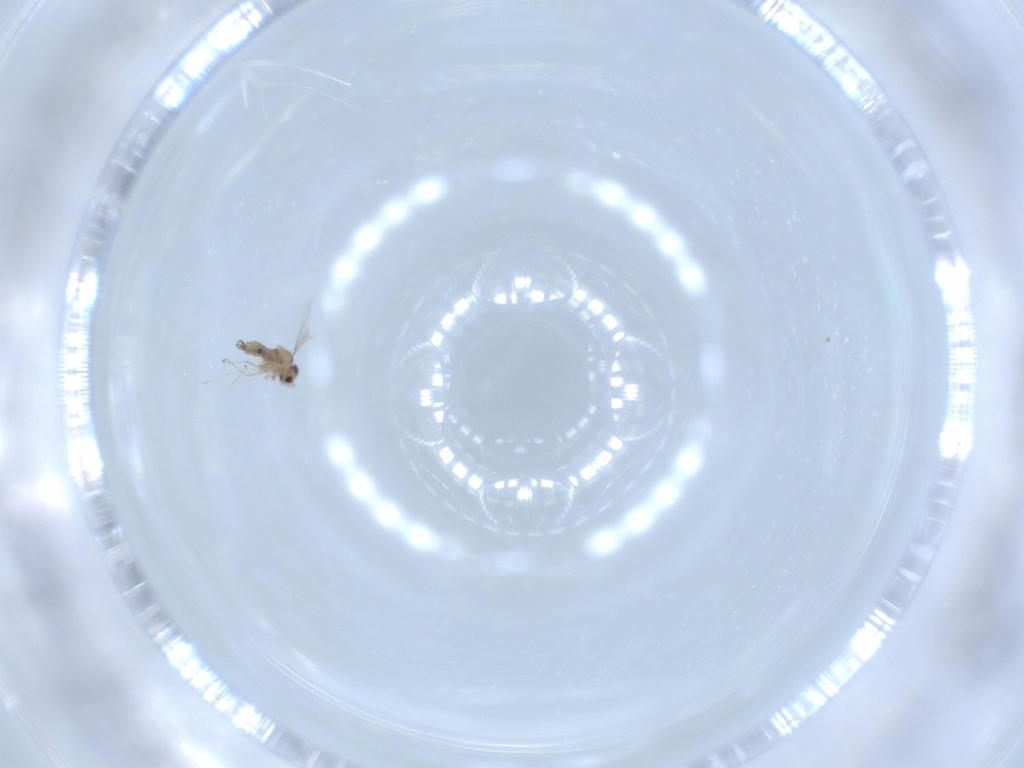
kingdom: Animalia
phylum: Arthropoda
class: Insecta
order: Diptera
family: Cecidomyiidae
